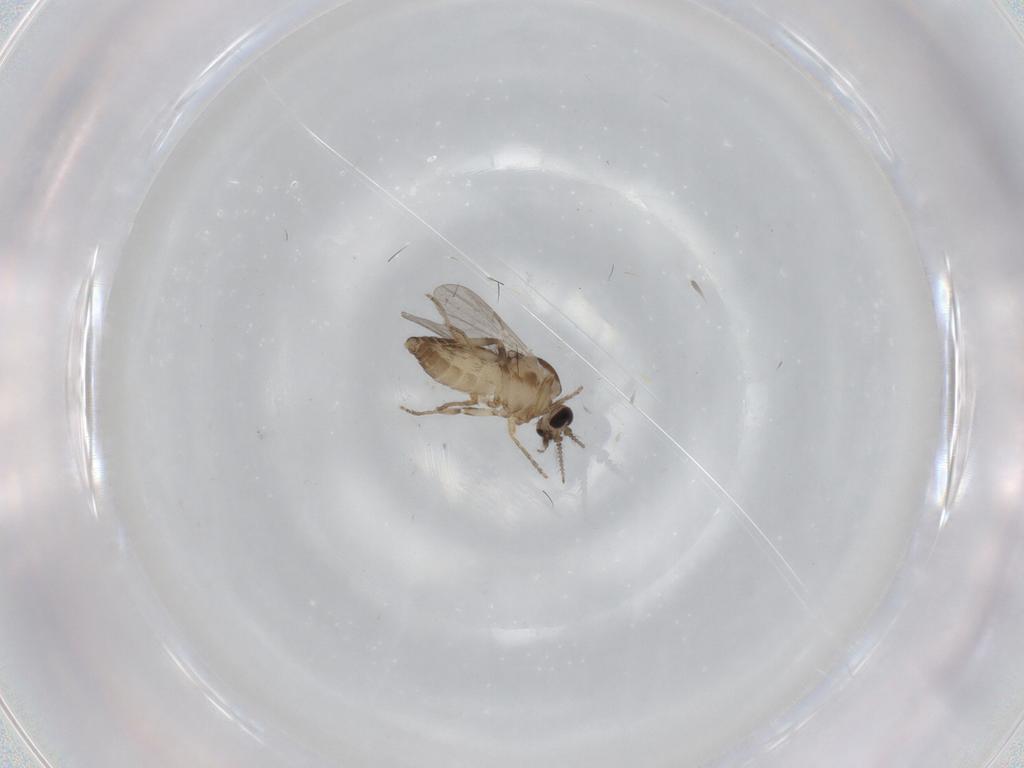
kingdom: Animalia
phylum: Arthropoda
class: Insecta
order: Diptera
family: Ceratopogonidae
